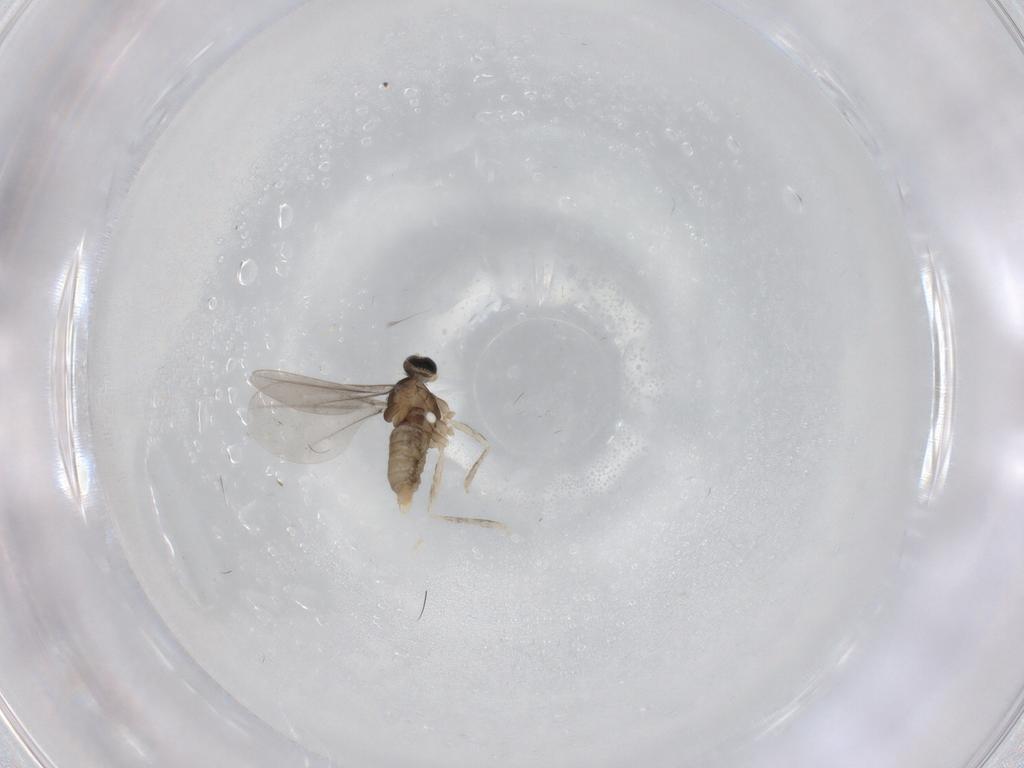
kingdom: Animalia
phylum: Arthropoda
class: Insecta
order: Diptera
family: Cecidomyiidae
